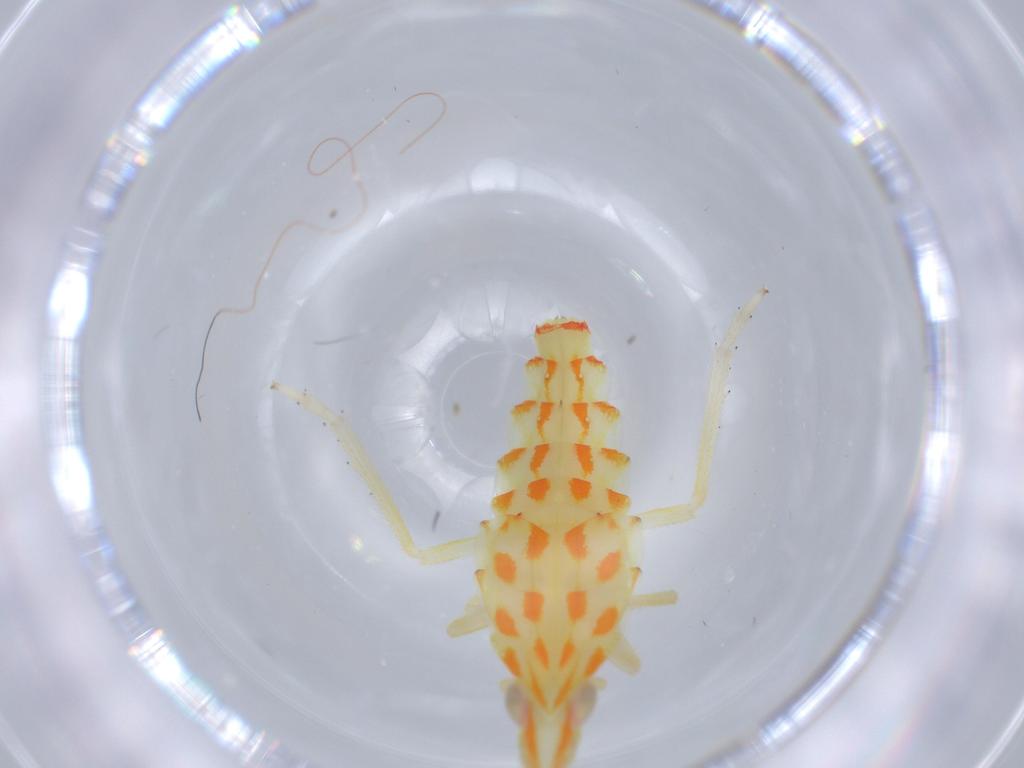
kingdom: Animalia
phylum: Arthropoda
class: Insecta
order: Hemiptera
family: Tropiduchidae
